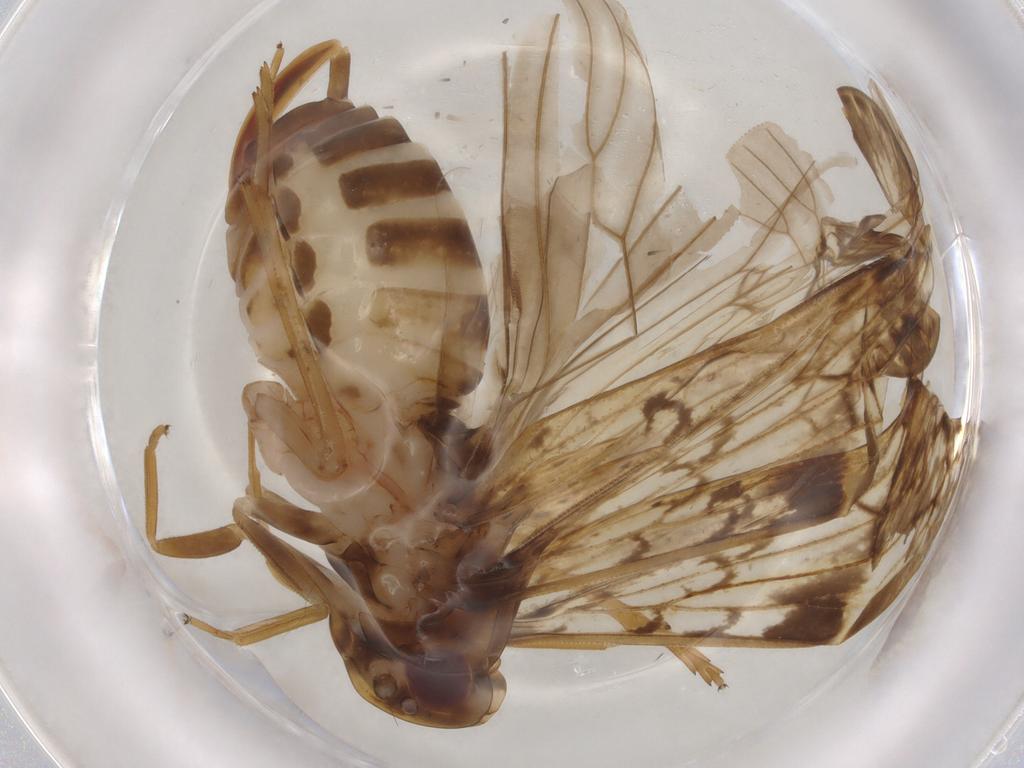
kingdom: Animalia
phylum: Arthropoda
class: Insecta
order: Hemiptera
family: Cixiidae
